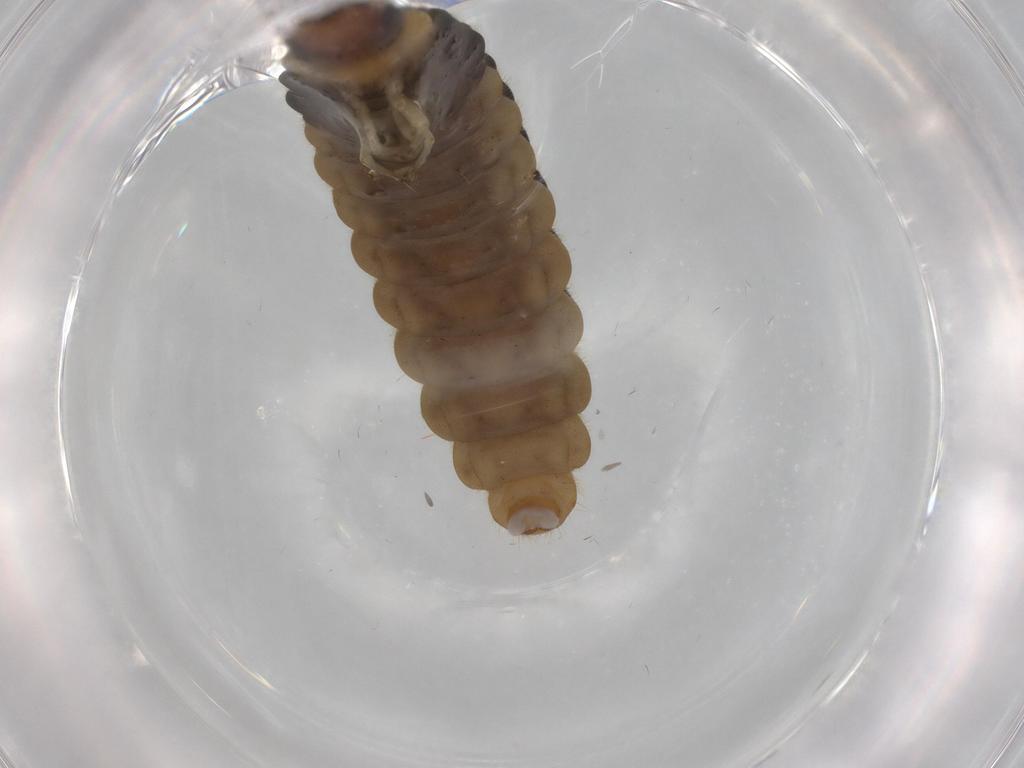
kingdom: Animalia
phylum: Arthropoda
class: Insecta
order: Coleoptera
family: Cantharidae
